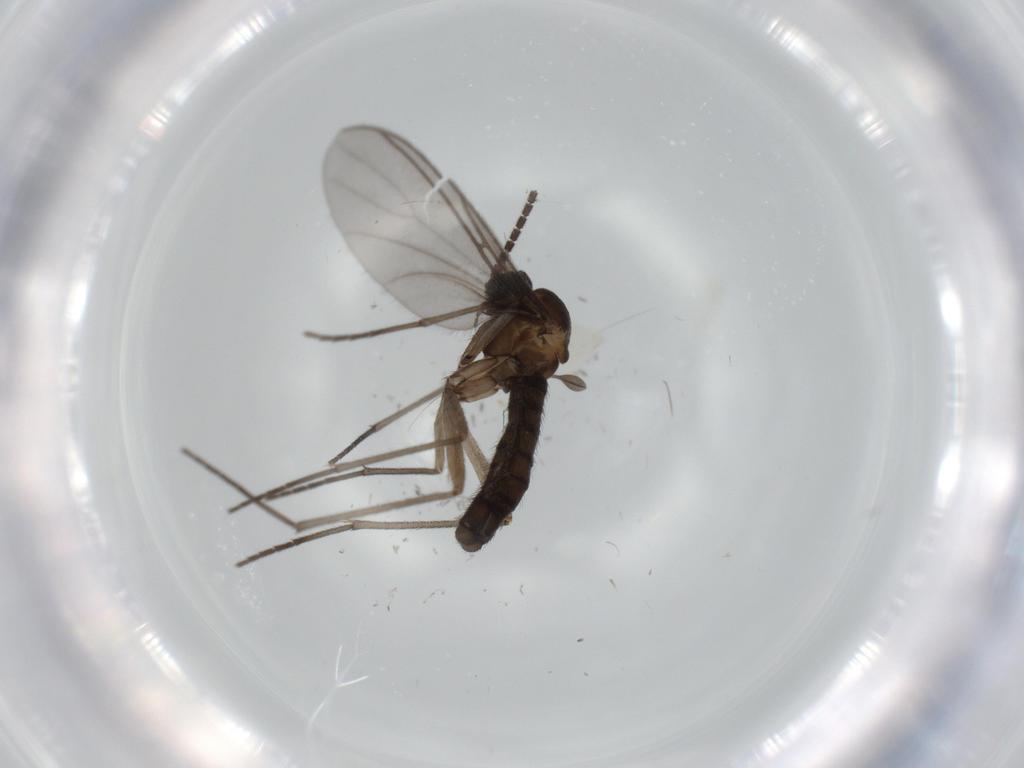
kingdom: Animalia
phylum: Arthropoda
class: Insecta
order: Diptera
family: Sciaridae
